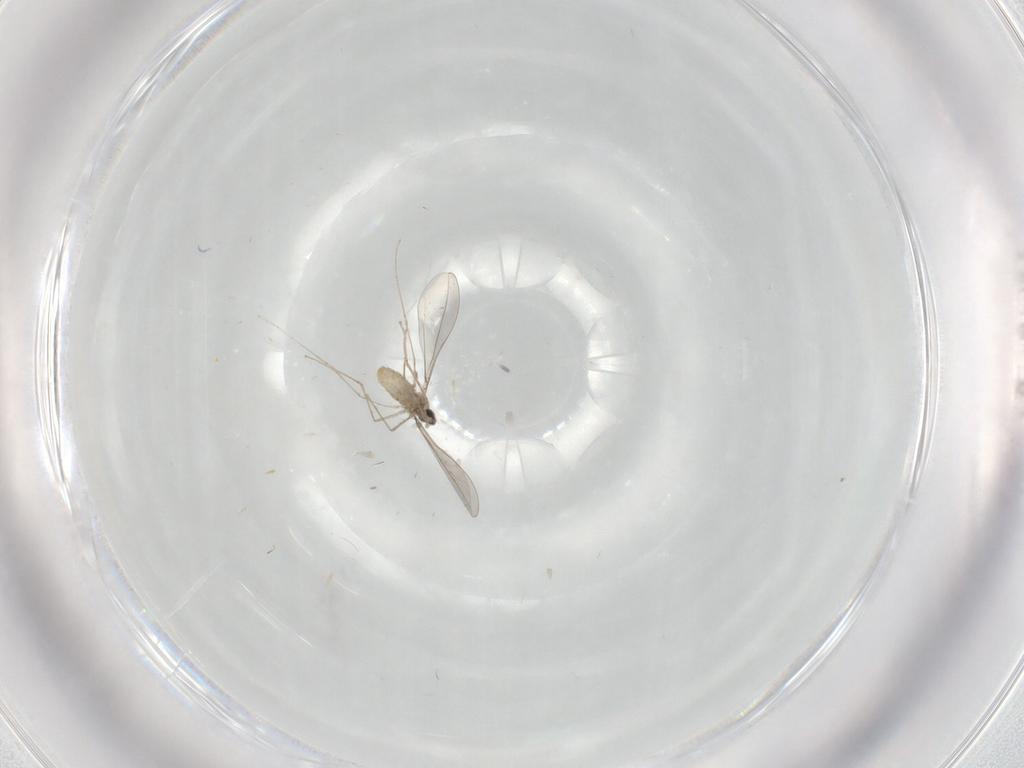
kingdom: Animalia
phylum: Arthropoda
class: Insecta
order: Diptera
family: Cecidomyiidae
